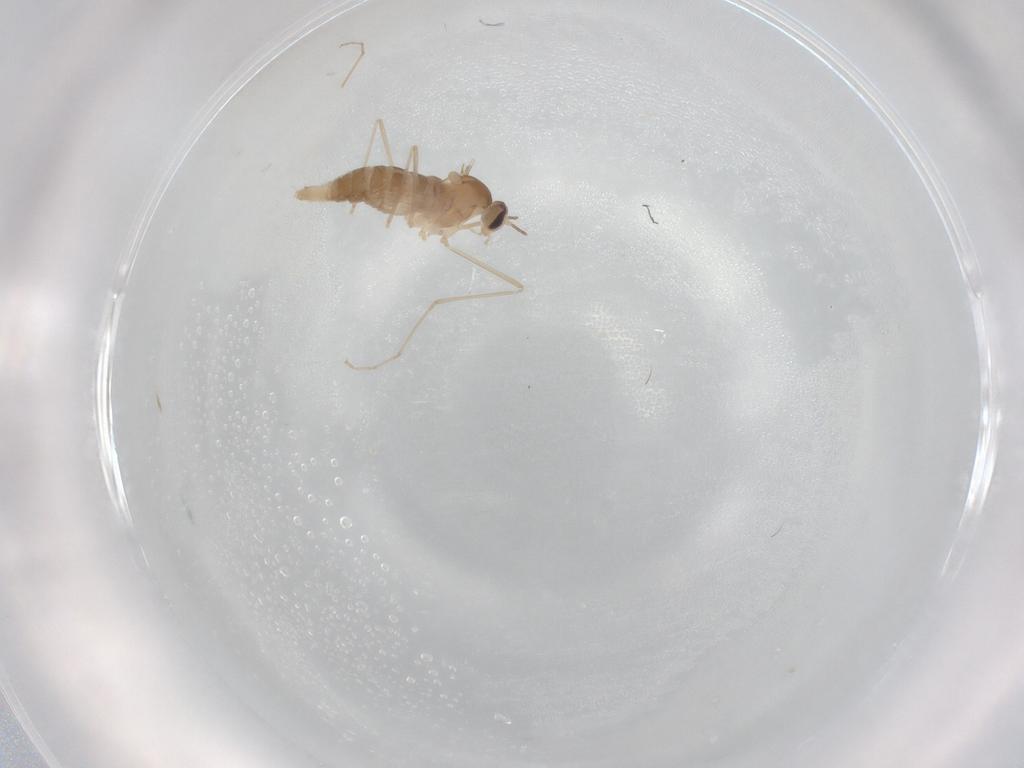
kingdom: Animalia
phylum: Arthropoda
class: Insecta
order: Diptera
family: Cecidomyiidae
